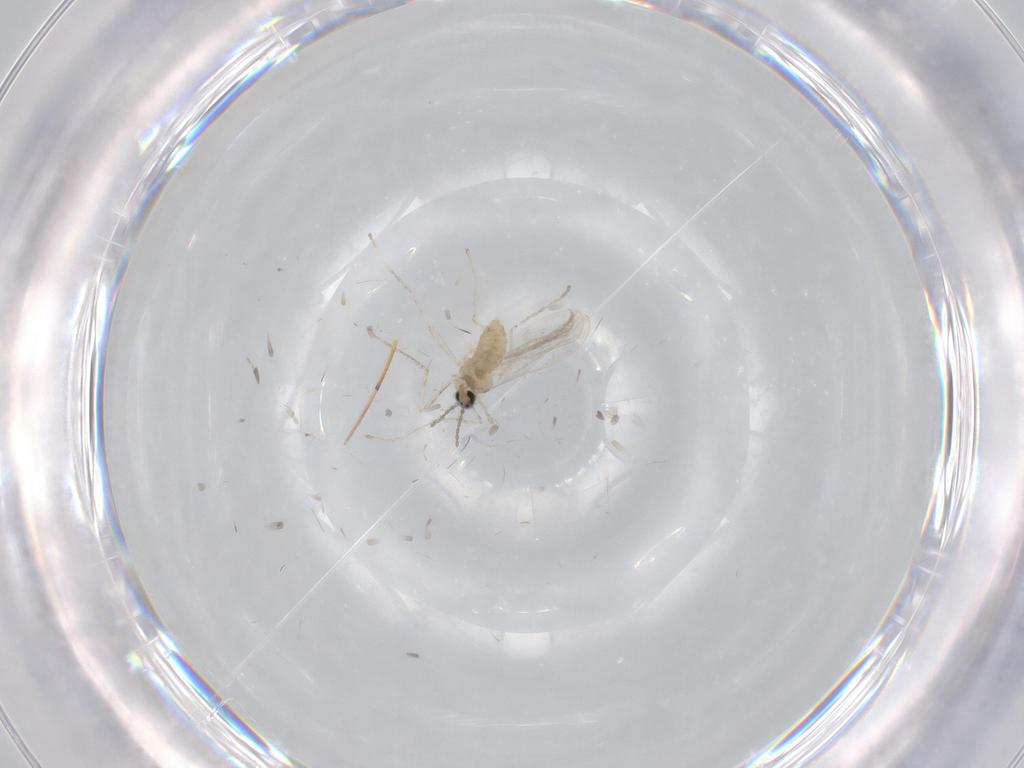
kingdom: Animalia
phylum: Arthropoda
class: Insecta
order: Diptera
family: Cecidomyiidae
